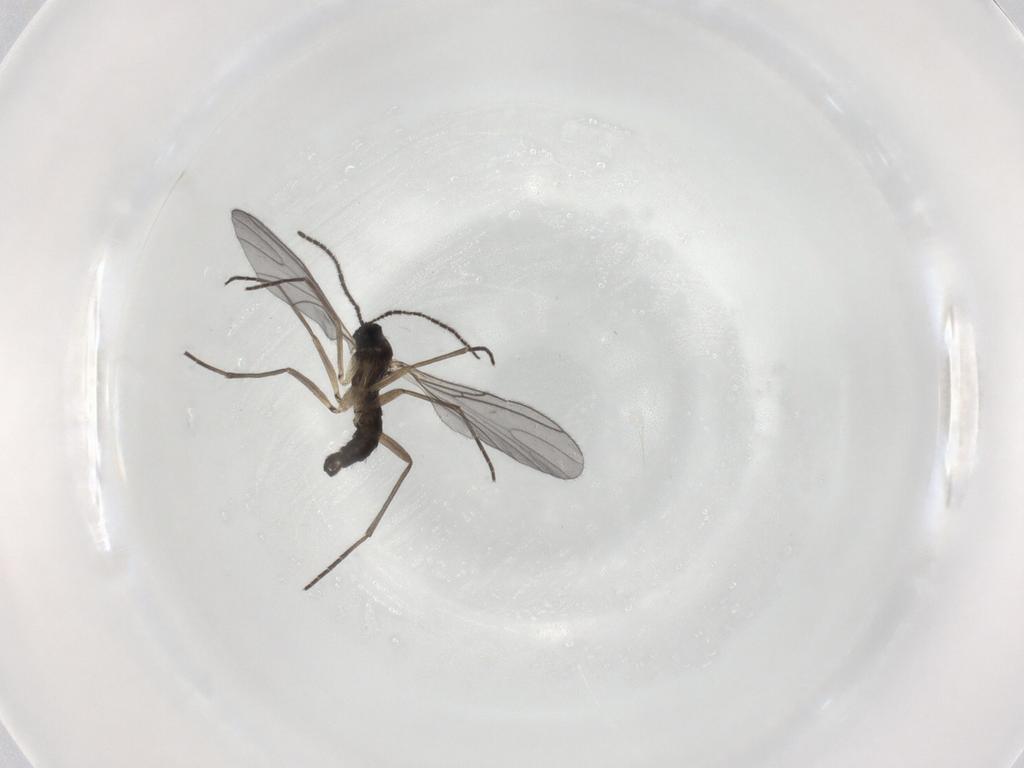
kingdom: Animalia
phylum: Arthropoda
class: Insecta
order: Diptera
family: Sciaridae
